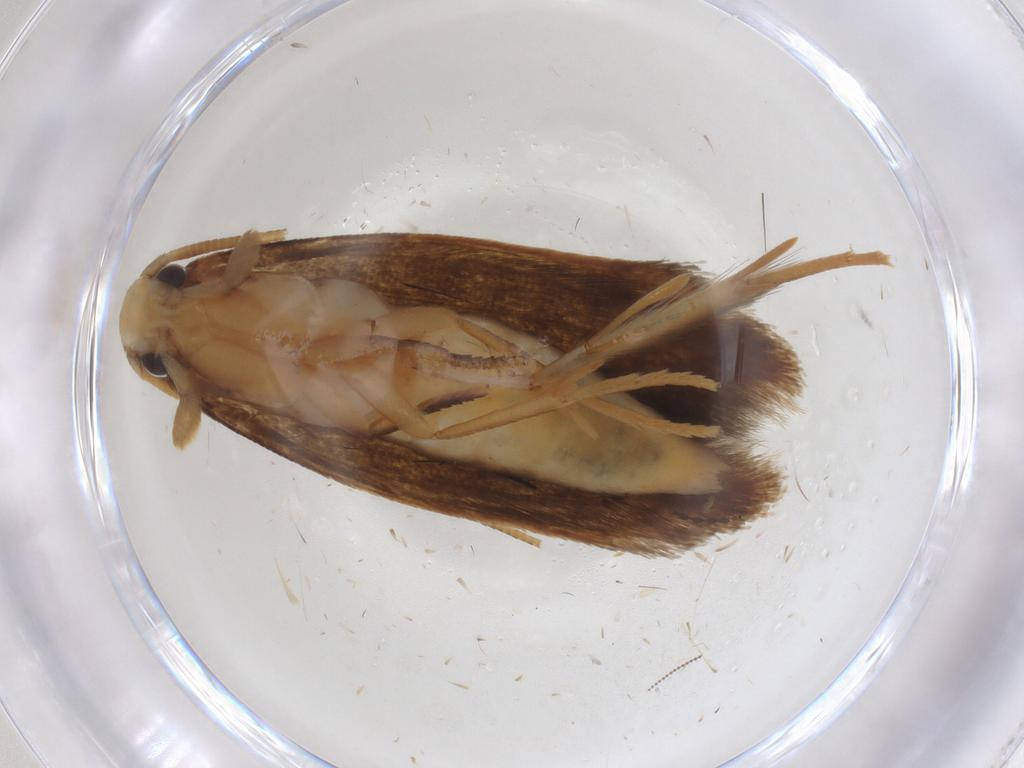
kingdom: Animalia
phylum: Arthropoda
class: Insecta
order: Lepidoptera
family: Tineidae
